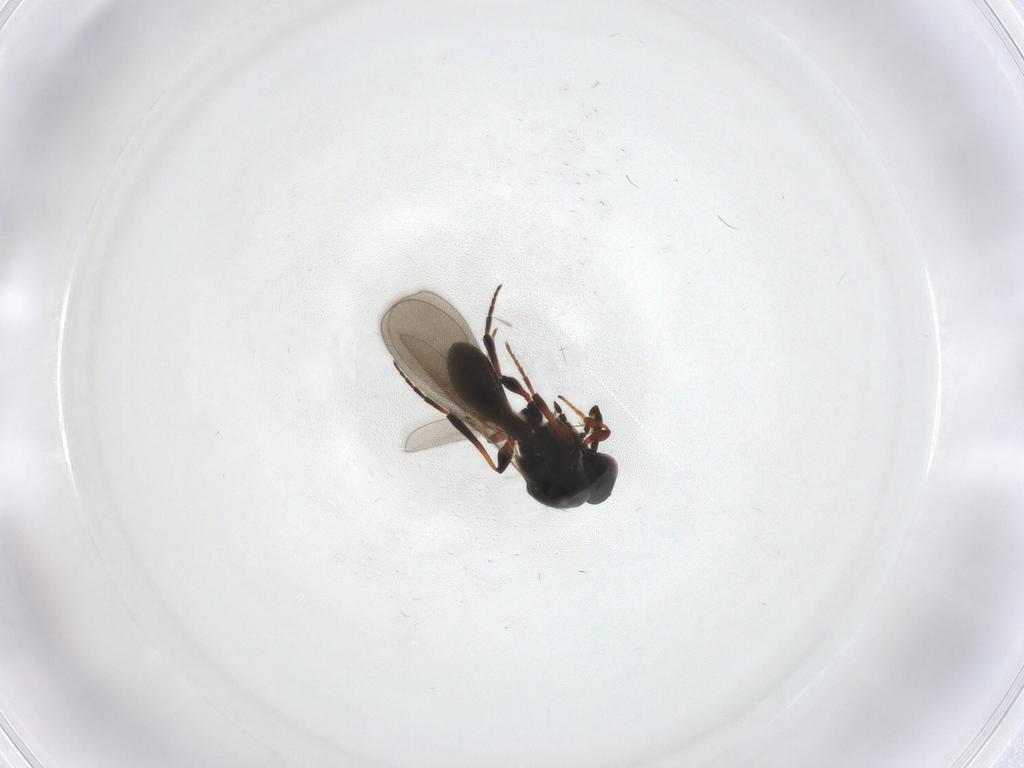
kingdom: Animalia
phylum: Arthropoda
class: Insecta
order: Hymenoptera
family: Platygastridae
